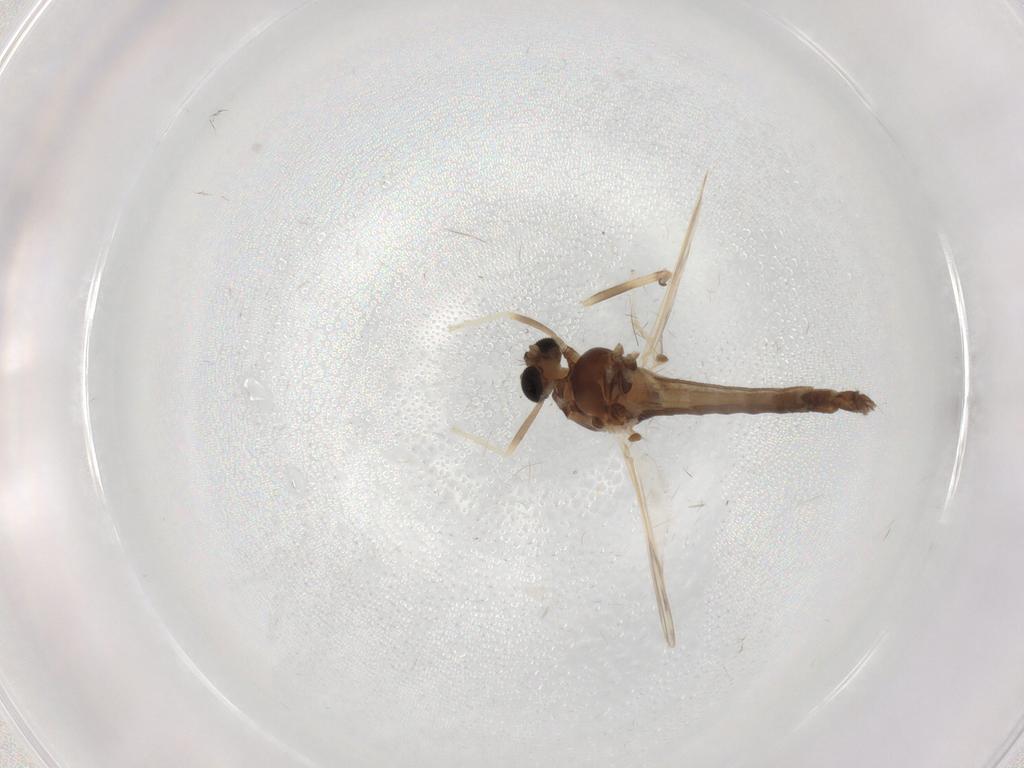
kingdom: Animalia
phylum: Arthropoda
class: Insecta
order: Diptera
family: Chironomidae
